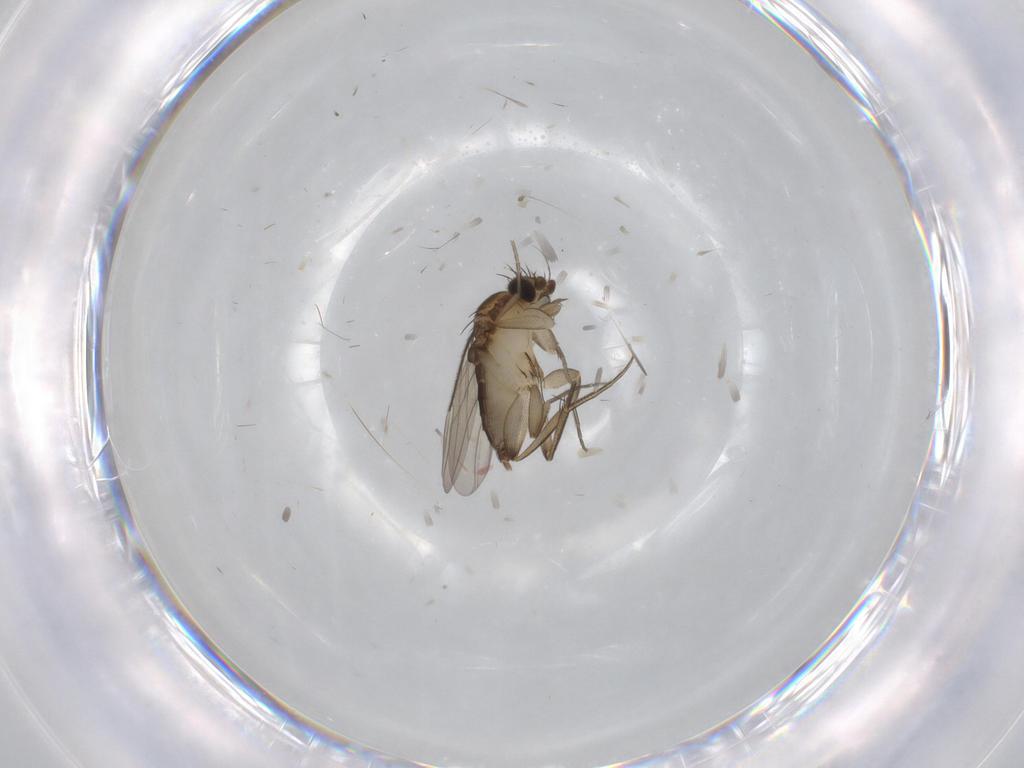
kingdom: Animalia
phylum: Arthropoda
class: Insecta
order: Diptera
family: Phoridae
